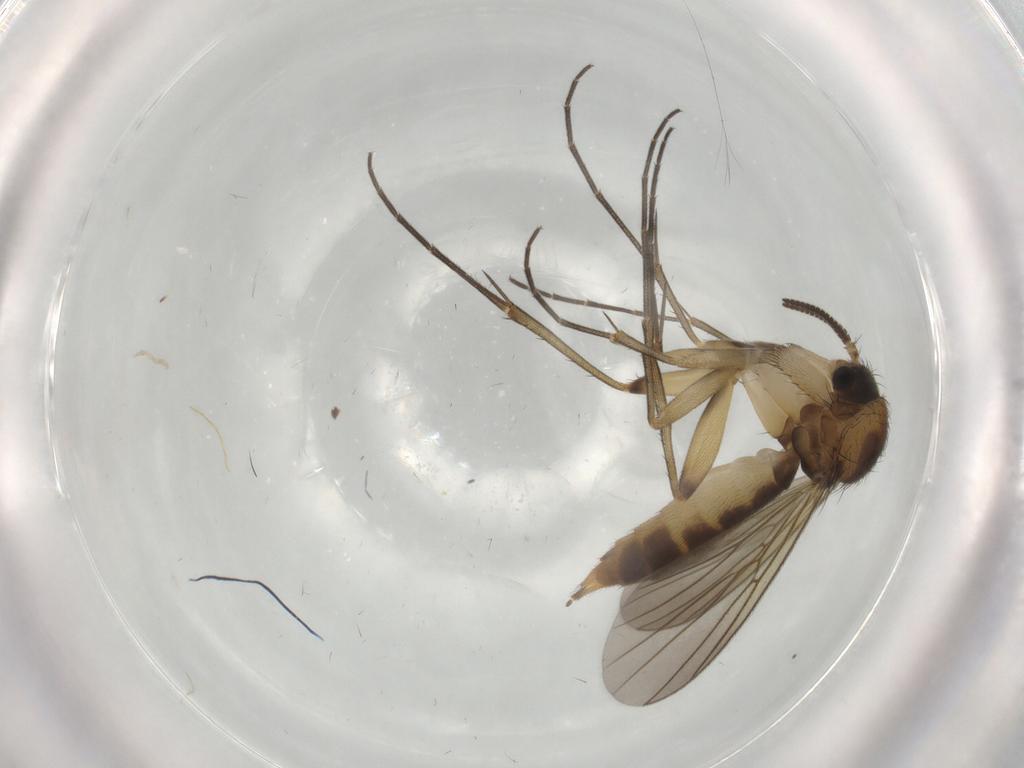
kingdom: Animalia
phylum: Arthropoda
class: Insecta
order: Diptera
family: Mycetophilidae
